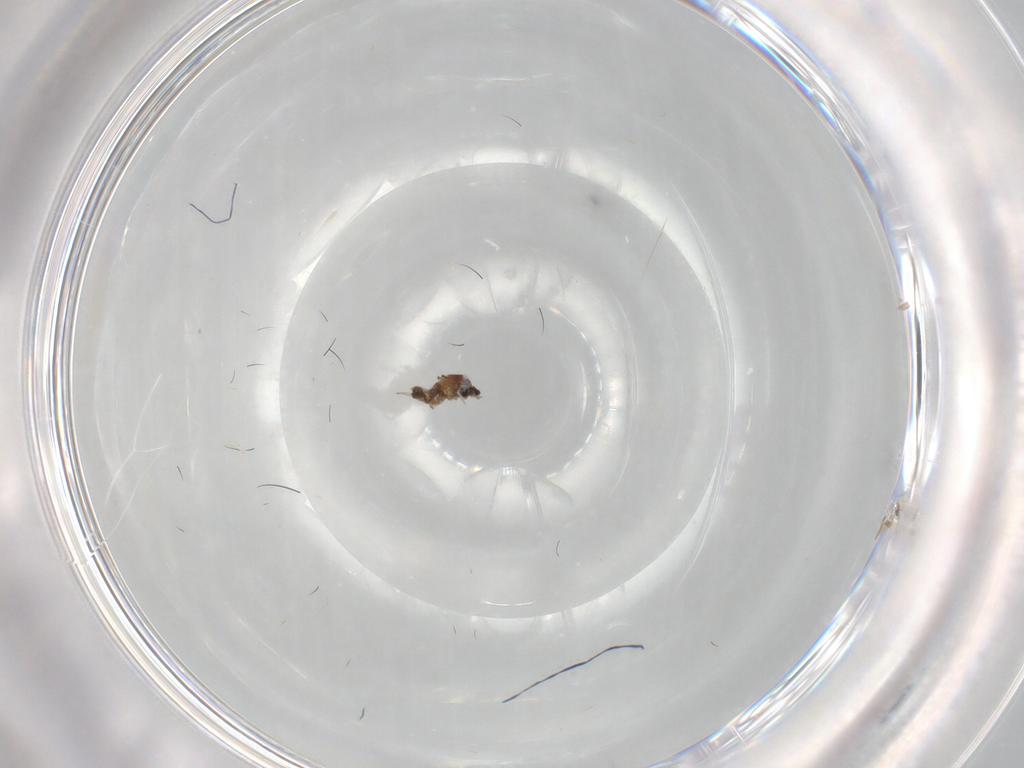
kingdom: Animalia
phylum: Arthropoda
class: Insecta
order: Diptera
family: Cecidomyiidae
